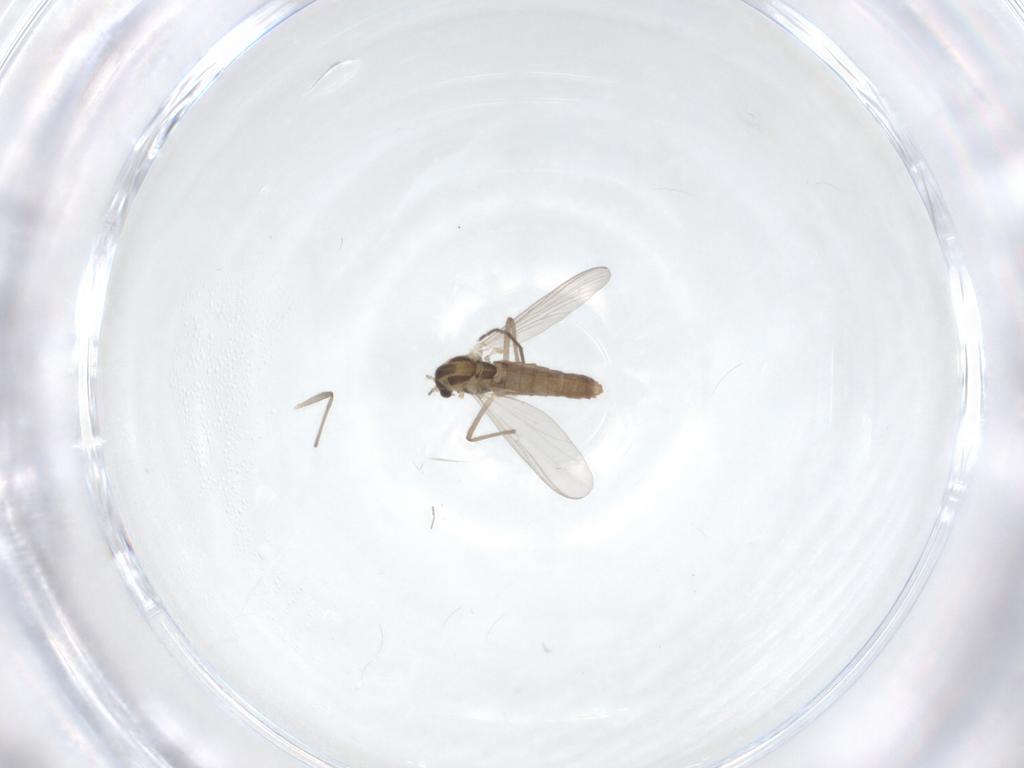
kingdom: Animalia
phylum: Arthropoda
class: Insecta
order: Diptera
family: Chironomidae
